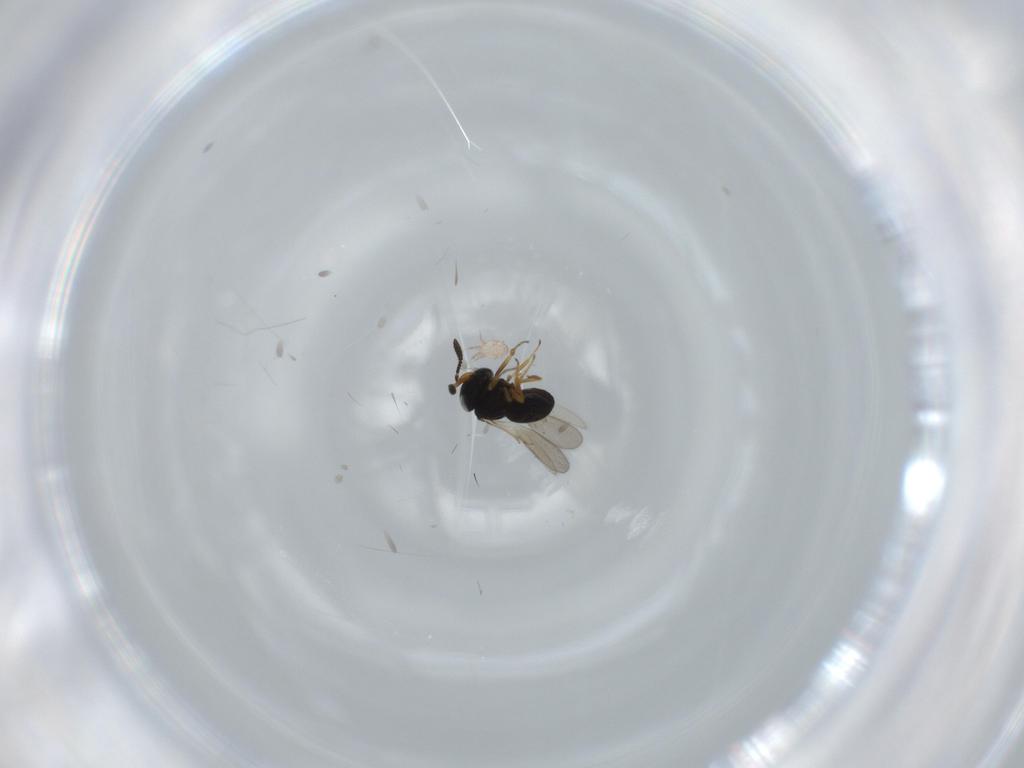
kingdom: Animalia
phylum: Arthropoda
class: Insecta
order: Hymenoptera
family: Scelionidae
